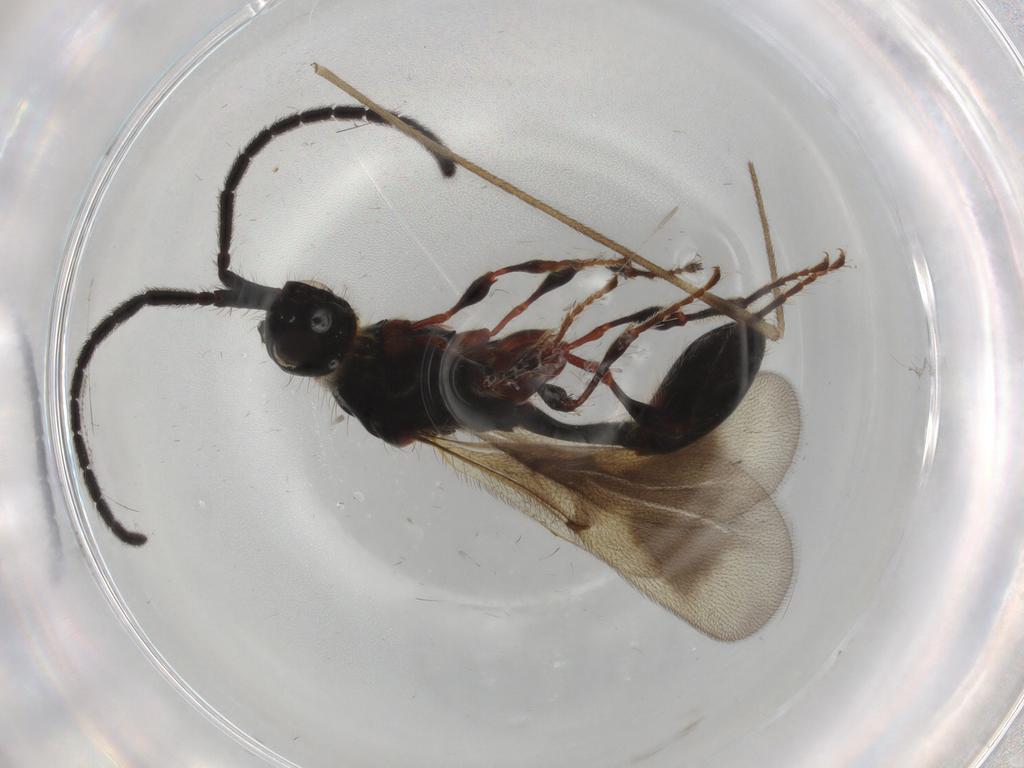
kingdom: Animalia
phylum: Arthropoda
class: Insecta
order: Hymenoptera
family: Diapriidae
